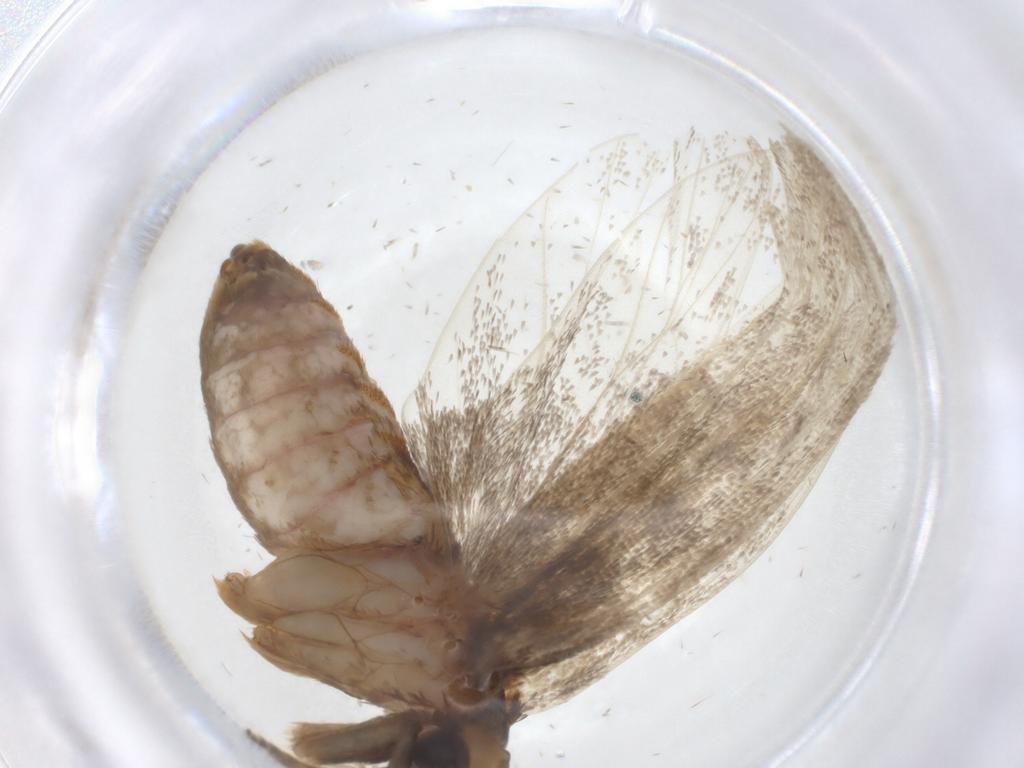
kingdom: Animalia
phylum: Arthropoda
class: Insecta
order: Lepidoptera
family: Lecithoceridae
